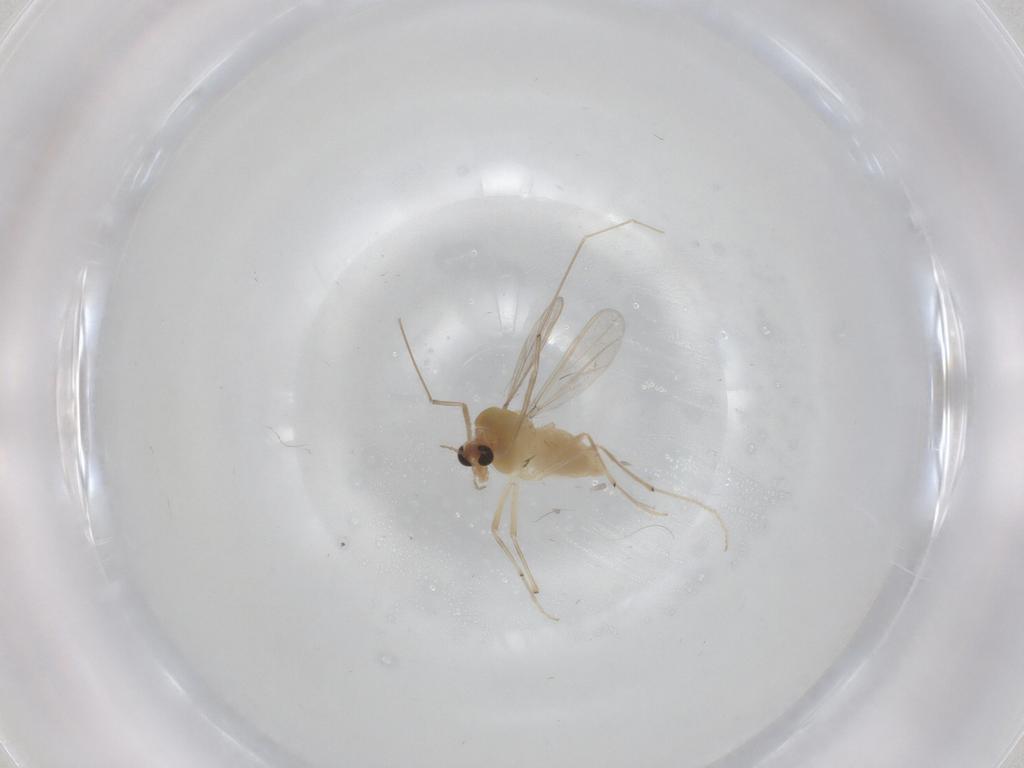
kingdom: Animalia
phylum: Arthropoda
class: Insecta
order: Diptera
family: Chironomidae
